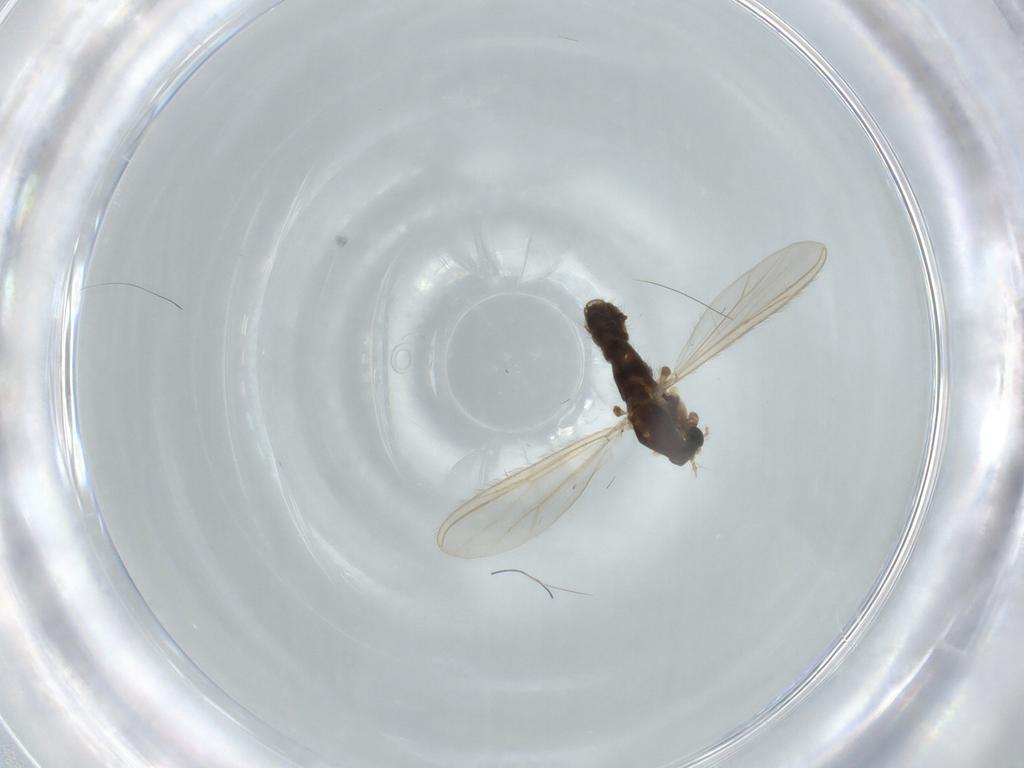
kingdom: Animalia
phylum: Arthropoda
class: Insecta
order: Diptera
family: Chironomidae
